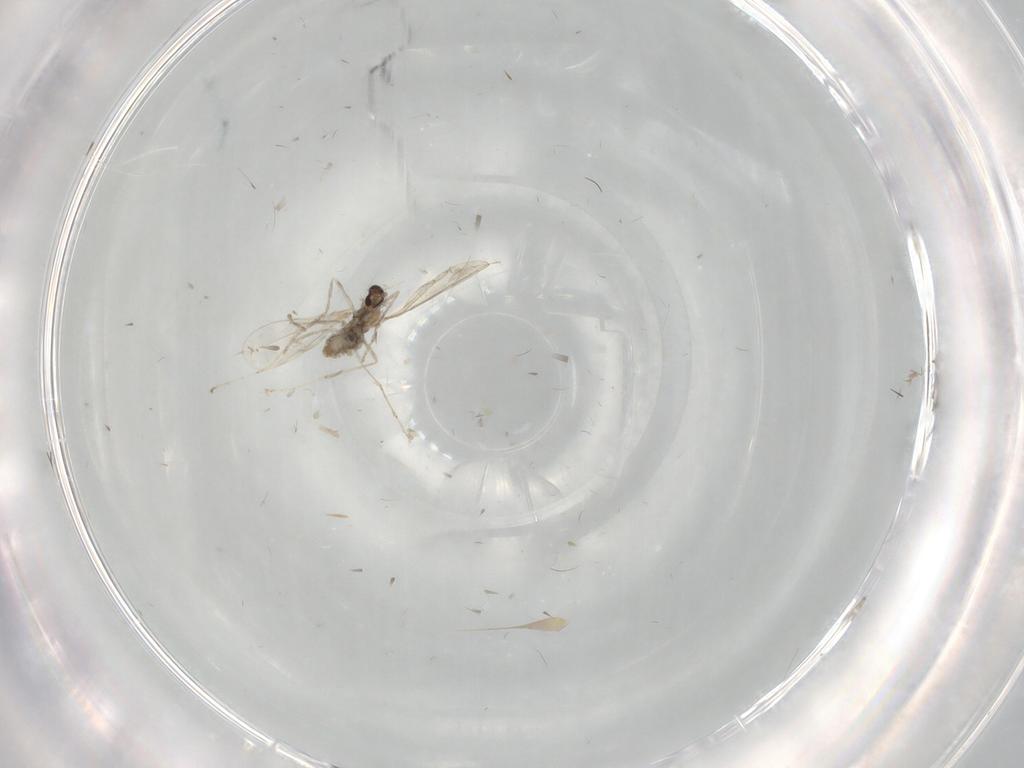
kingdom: Animalia
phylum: Arthropoda
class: Insecta
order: Diptera
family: Cecidomyiidae
